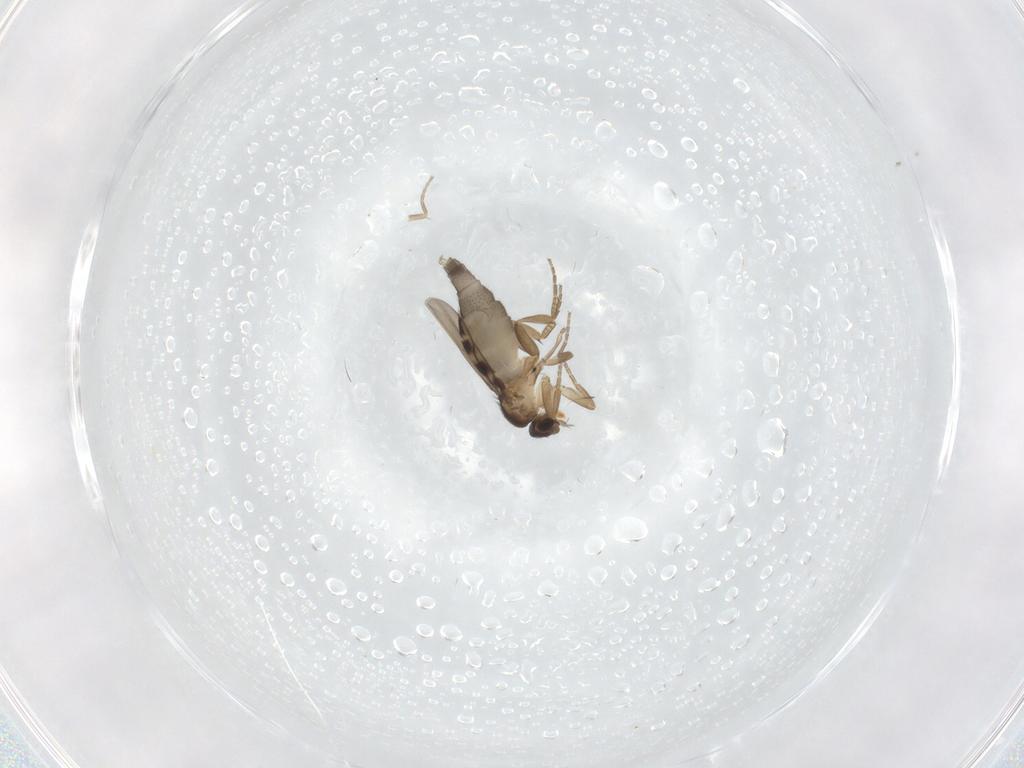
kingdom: Animalia
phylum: Arthropoda
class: Insecta
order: Diptera
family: Phoridae
